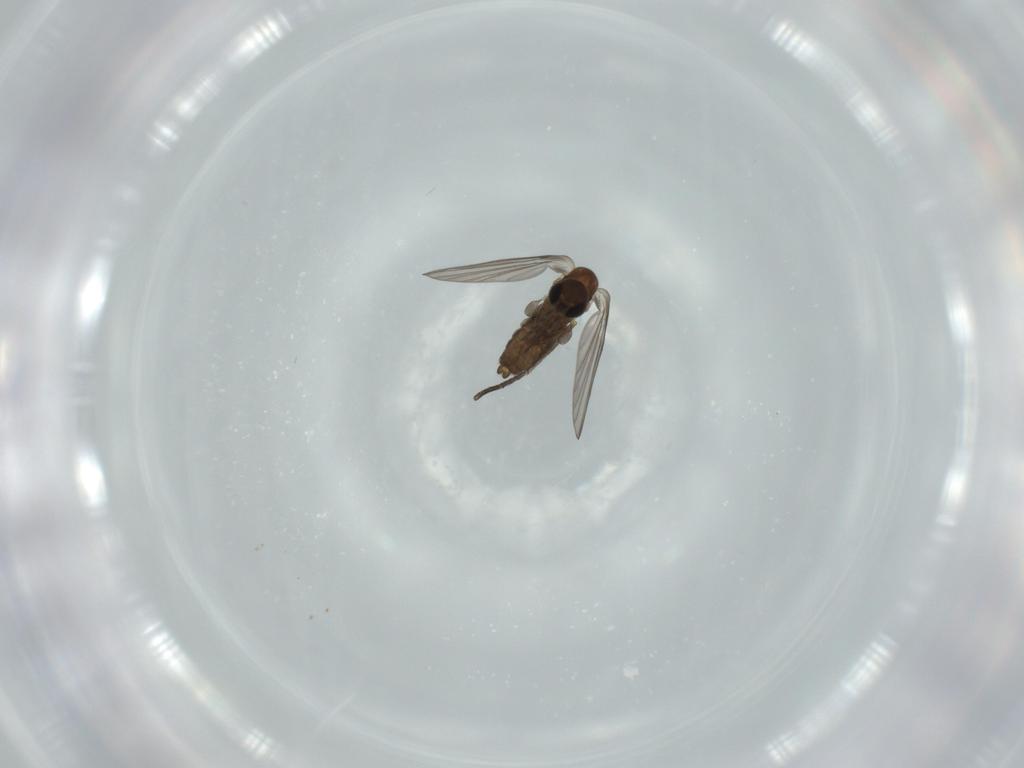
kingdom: Animalia
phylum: Arthropoda
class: Insecta
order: Diptera
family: Psychodidae
